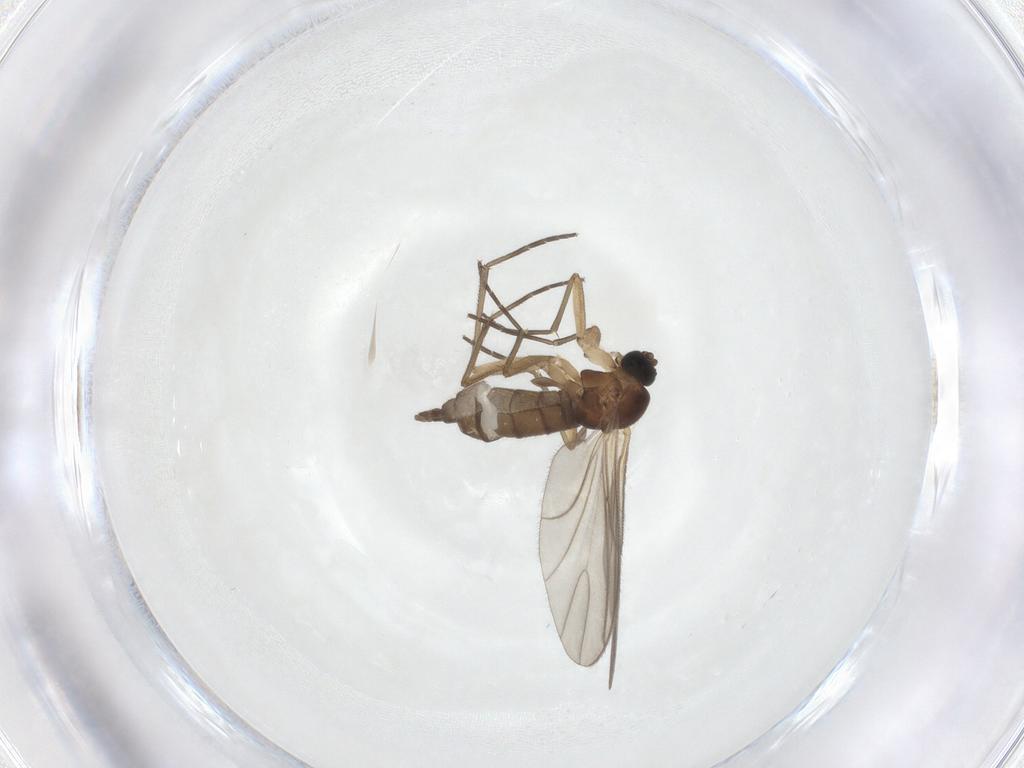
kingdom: Animalia
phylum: Arthropoda
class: Insecta
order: Diptera
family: Sciaridae
